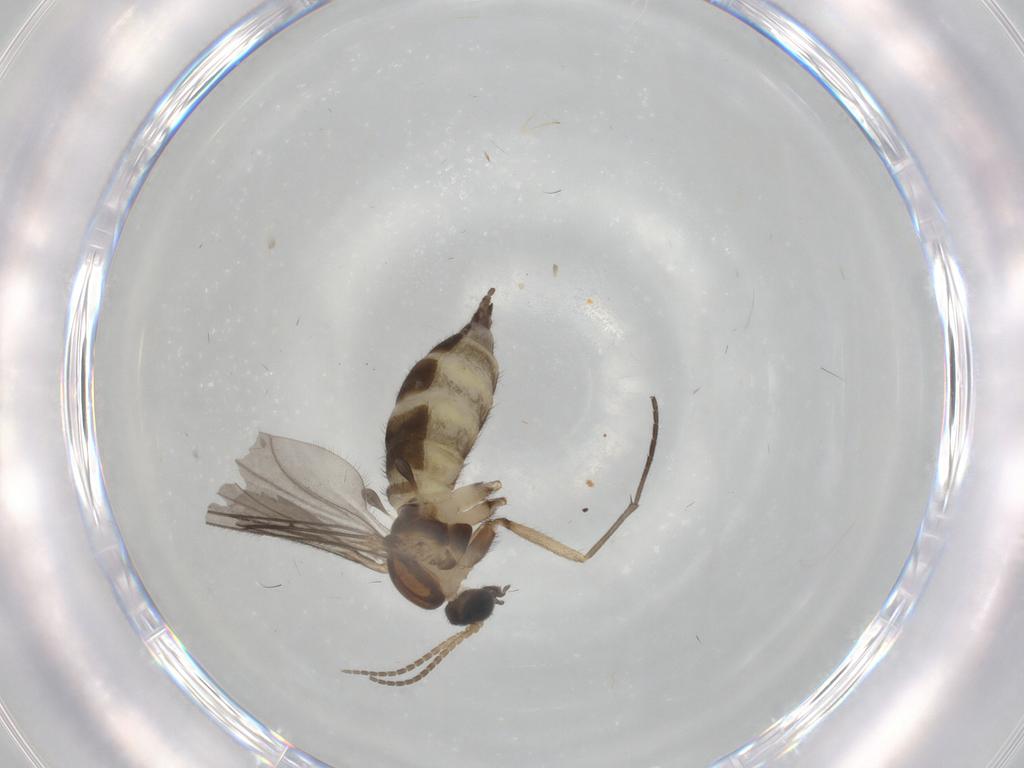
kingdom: Animalia
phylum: Arthropoda
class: Insecta
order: Diptera
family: Sciaridae
